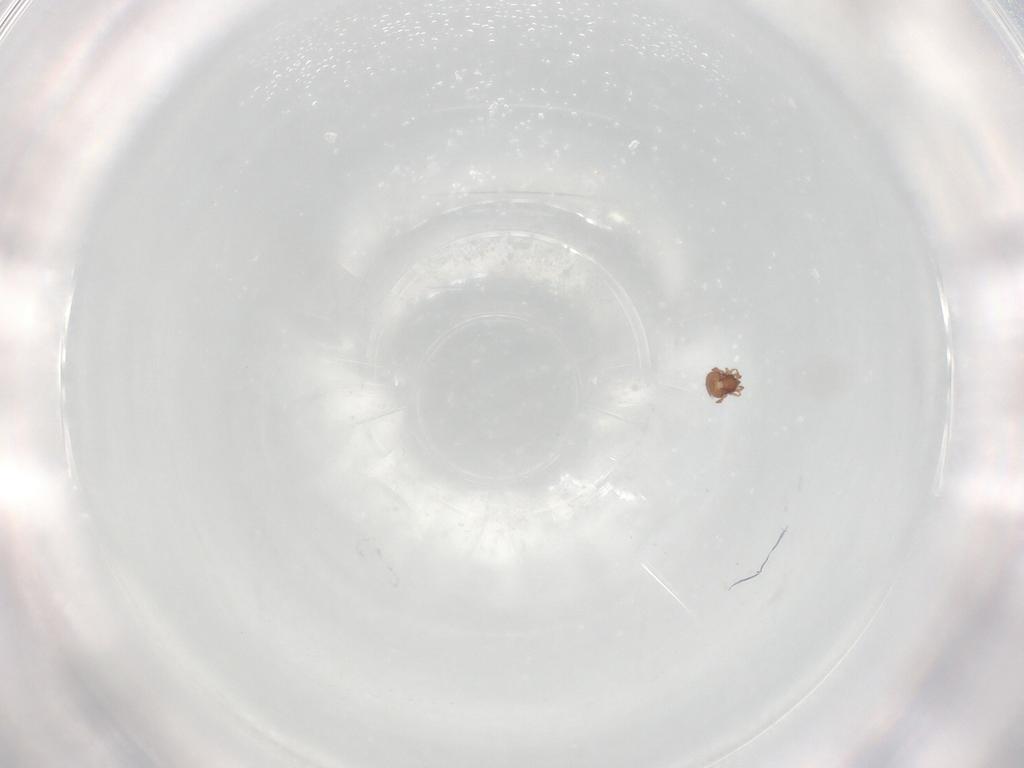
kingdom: Animalia
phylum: Arthropoda
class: Arachnida
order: Sarcoptiformes
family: Oribatulidae
